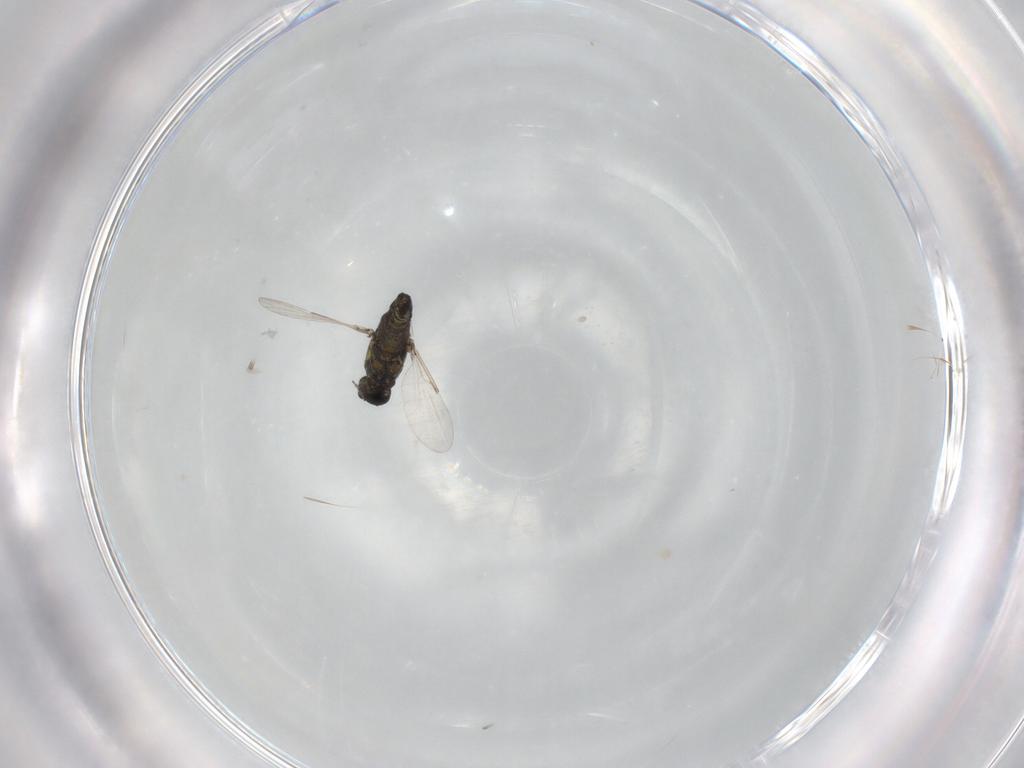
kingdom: Animalia
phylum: Arthropoda
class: Insecta
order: Diptera
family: Ceratopogonidae
